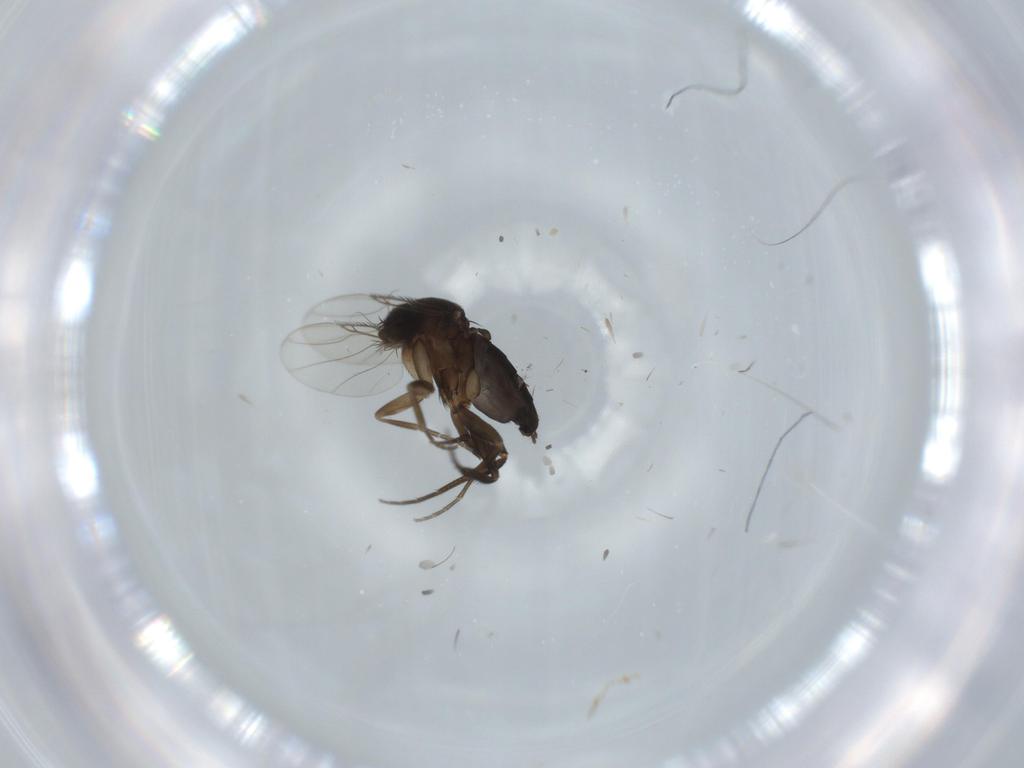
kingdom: Animalia
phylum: Arthropoda
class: Insecta
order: Diptera
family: Phoridae
